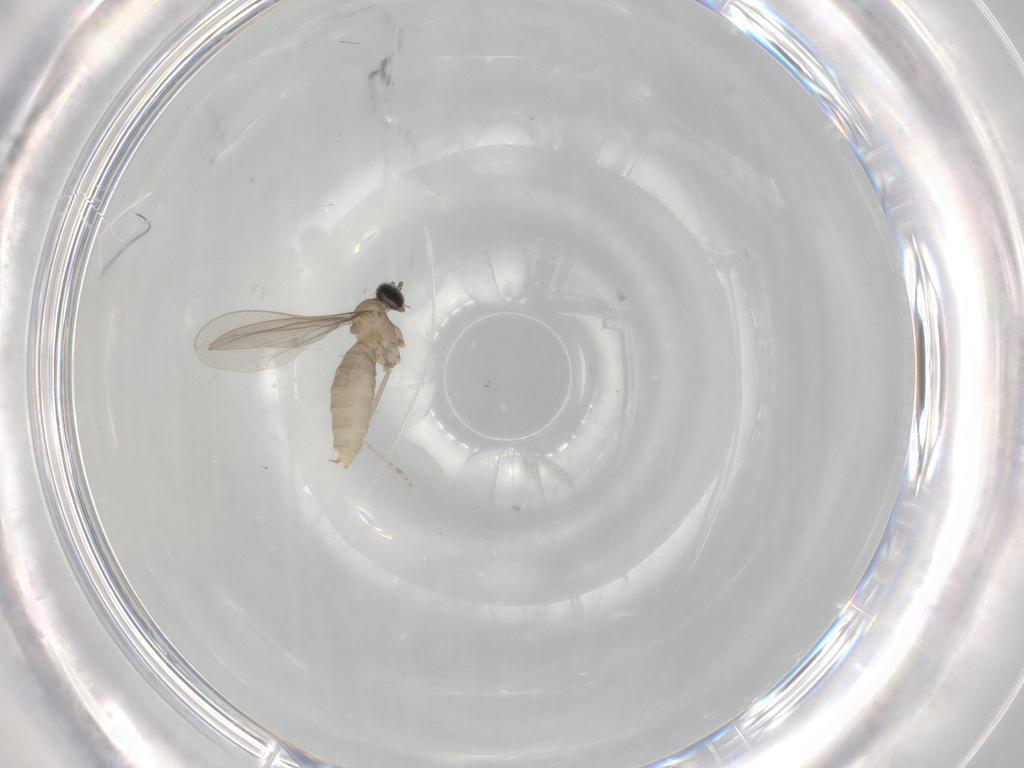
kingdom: Animalia
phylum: Arthropoda
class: Insecta
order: Diptera
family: Cecidomyiidae
